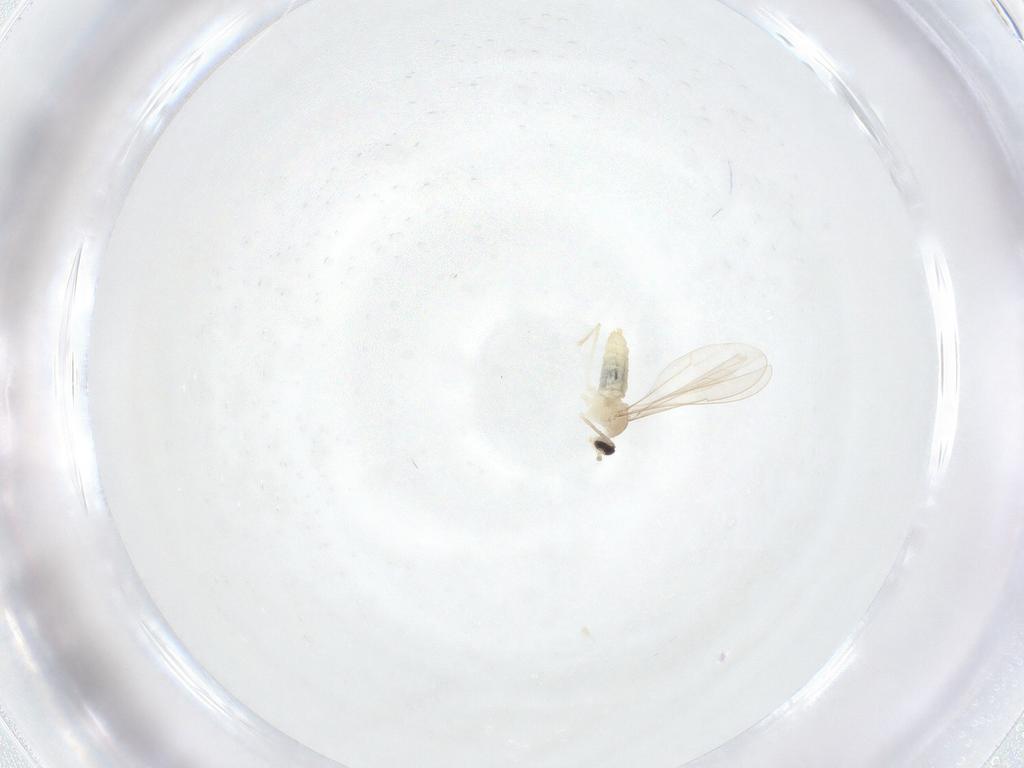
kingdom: Animalia
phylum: Arthropoda
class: Insecta
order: Diptera
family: Cecidomyiidae
